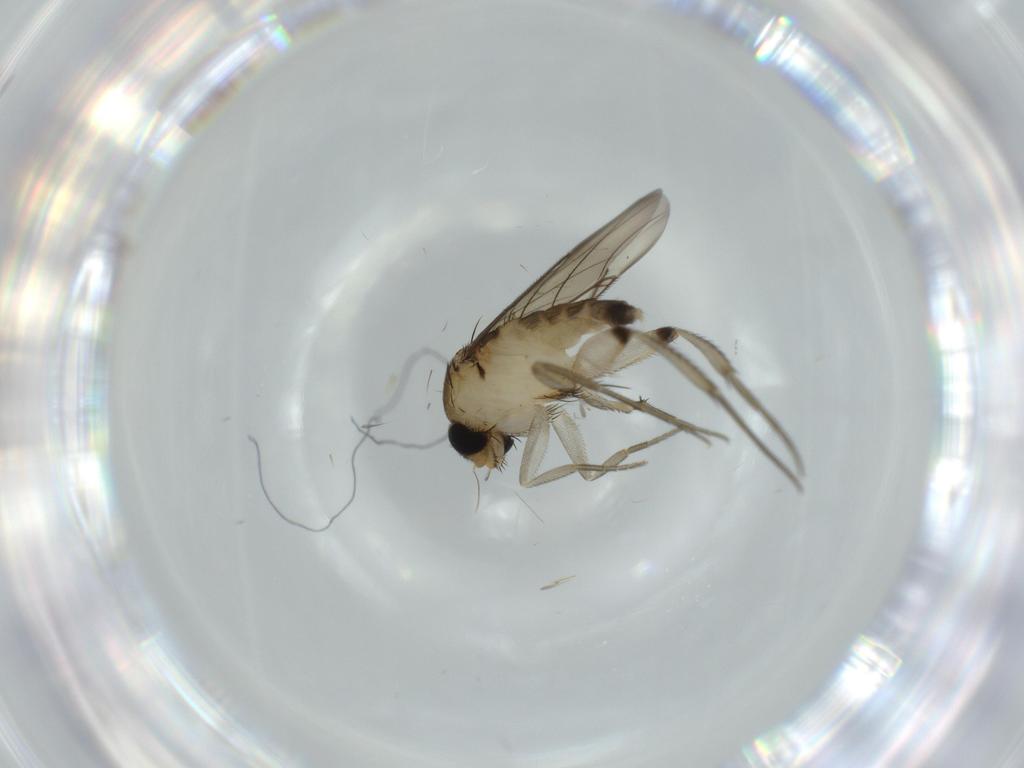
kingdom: Animalia
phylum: Arthropoda
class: Insecta
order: Diptera
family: Phoridae
